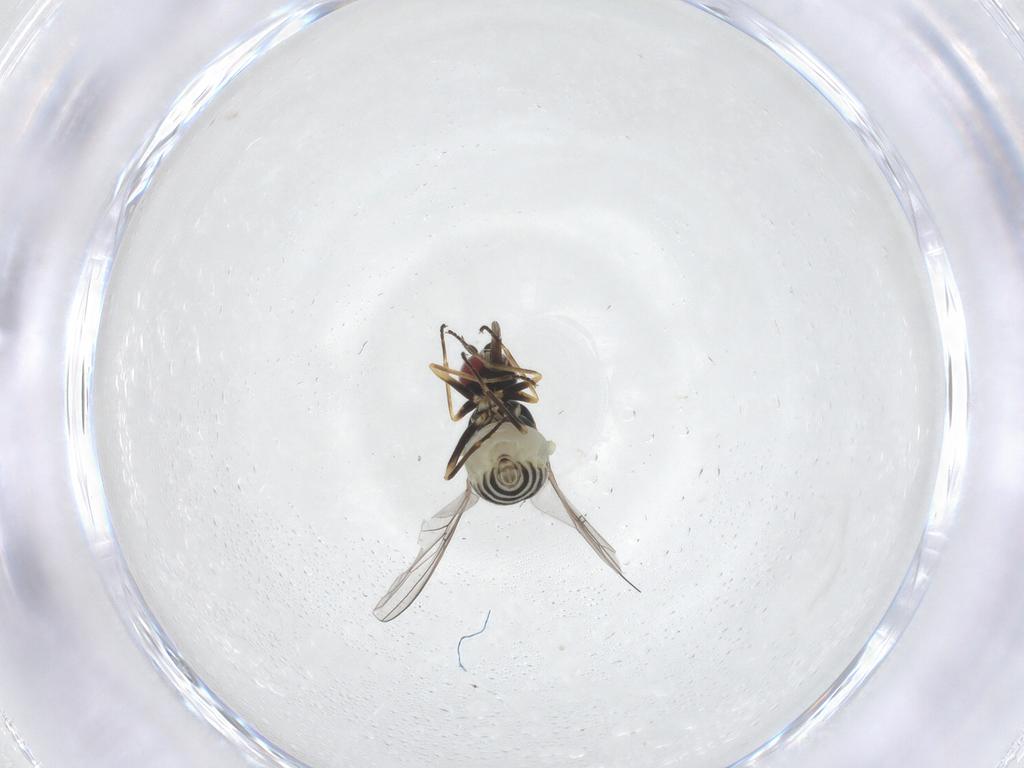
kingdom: Animalia
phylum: Arthropoda
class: Insecta
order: Diptera
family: Bombyliidae
